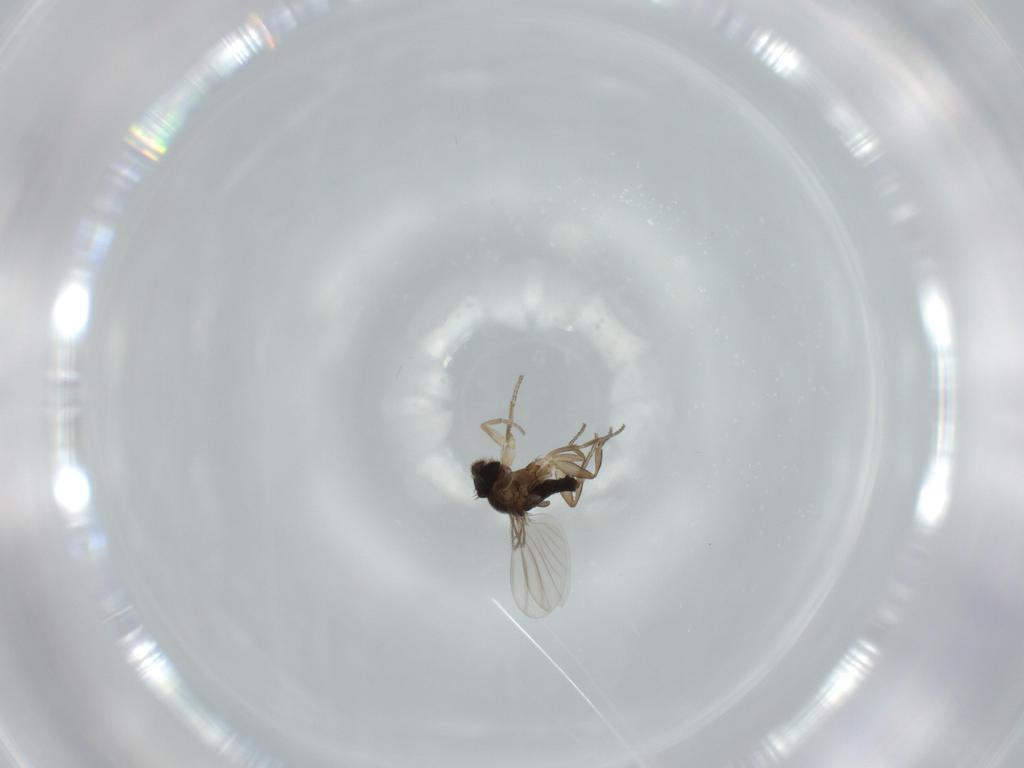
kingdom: Animalia
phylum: Arthropoda
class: Insecta
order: Diptera
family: Phoridae
